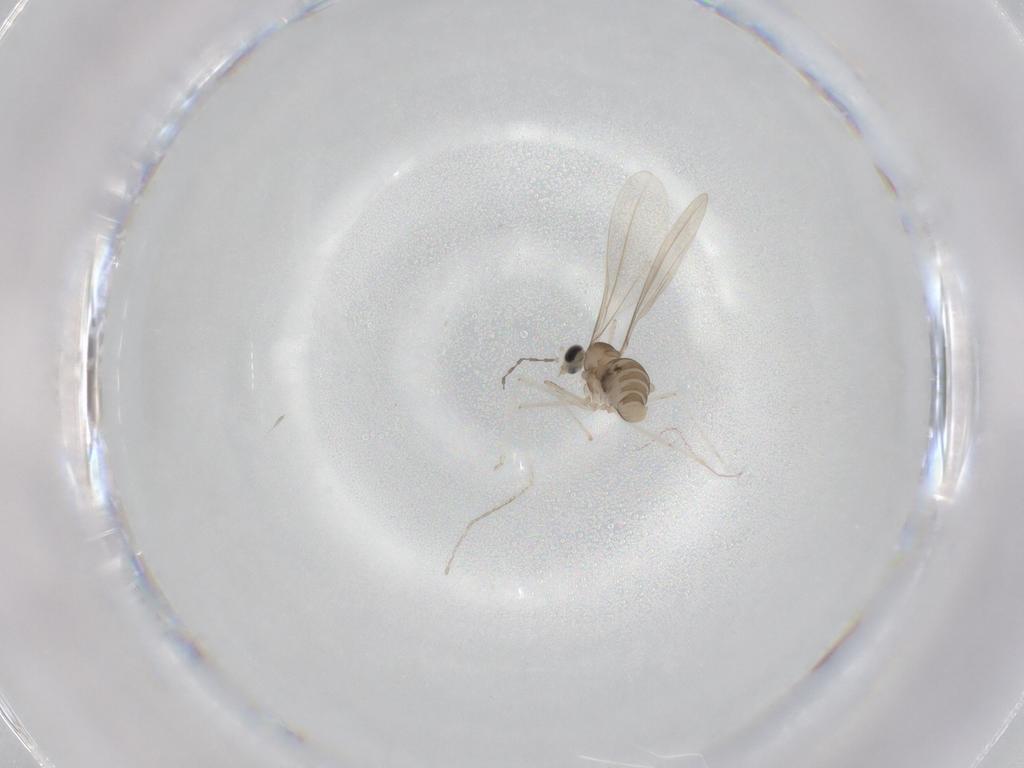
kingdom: Animalia
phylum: Arthropoda
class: Insecta
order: Diptera
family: Cecidomyiidae
